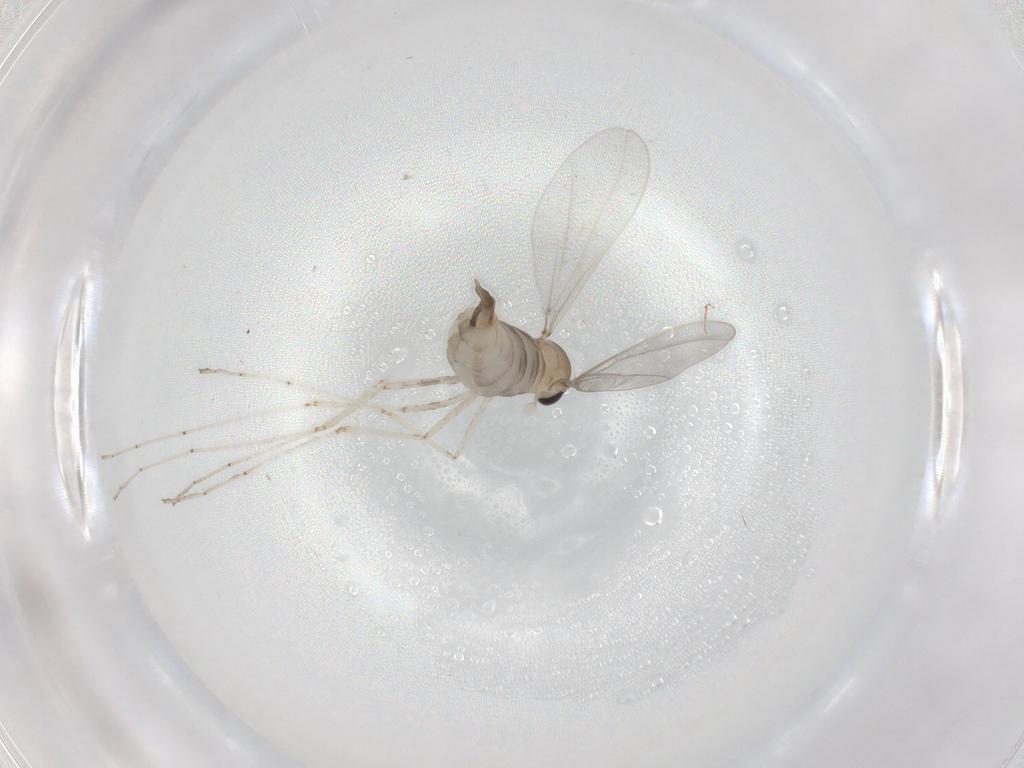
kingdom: Animalia
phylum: Arthropoda
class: Insecta
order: Diptera
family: Cecidomyiidae
